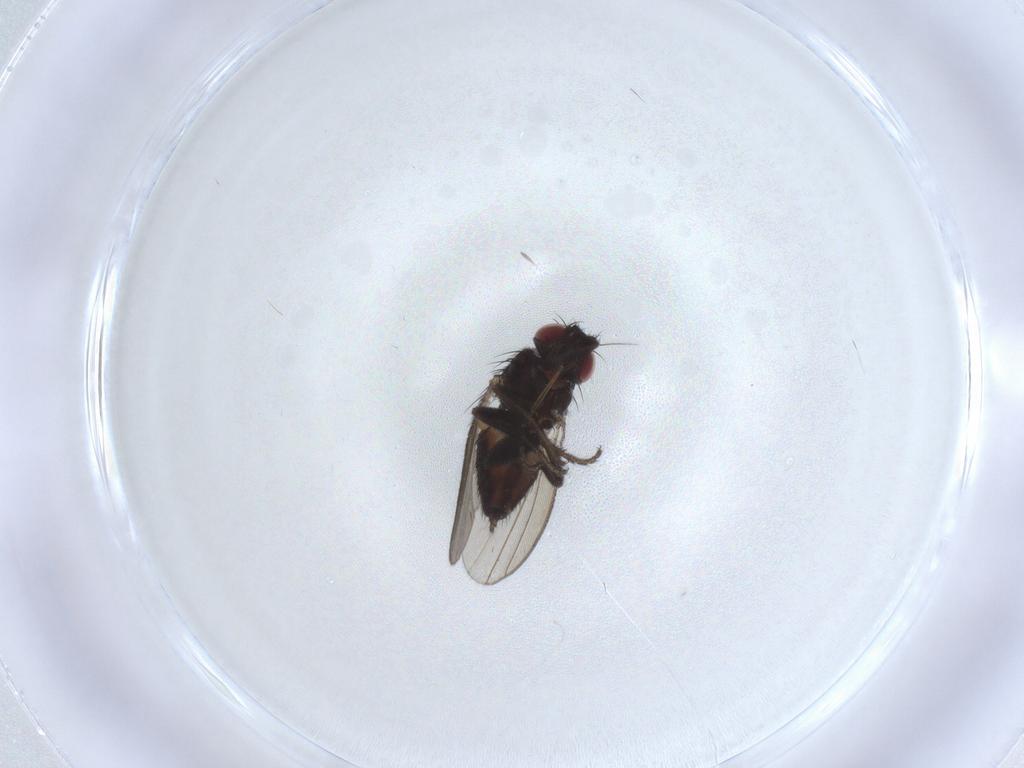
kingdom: Animalia
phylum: Arthropoda
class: Insecta
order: Diptera
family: Milichiidae
